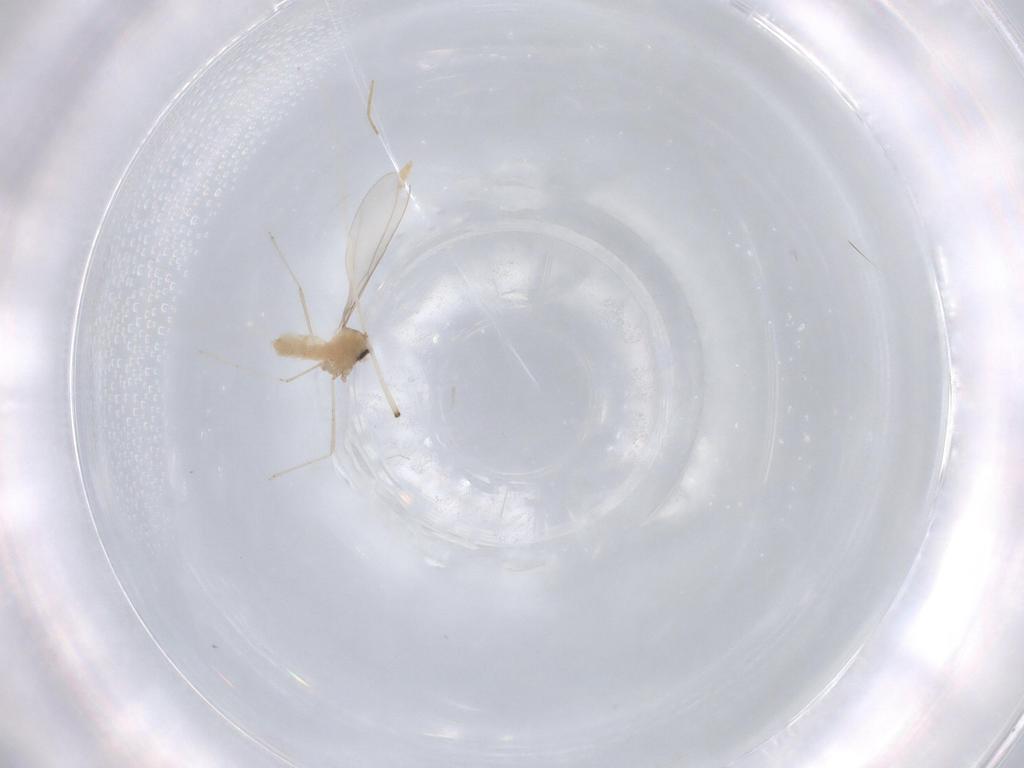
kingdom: Animalia
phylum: Arthropoda
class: Insecta
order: Diptera
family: Cecidomyiidae
